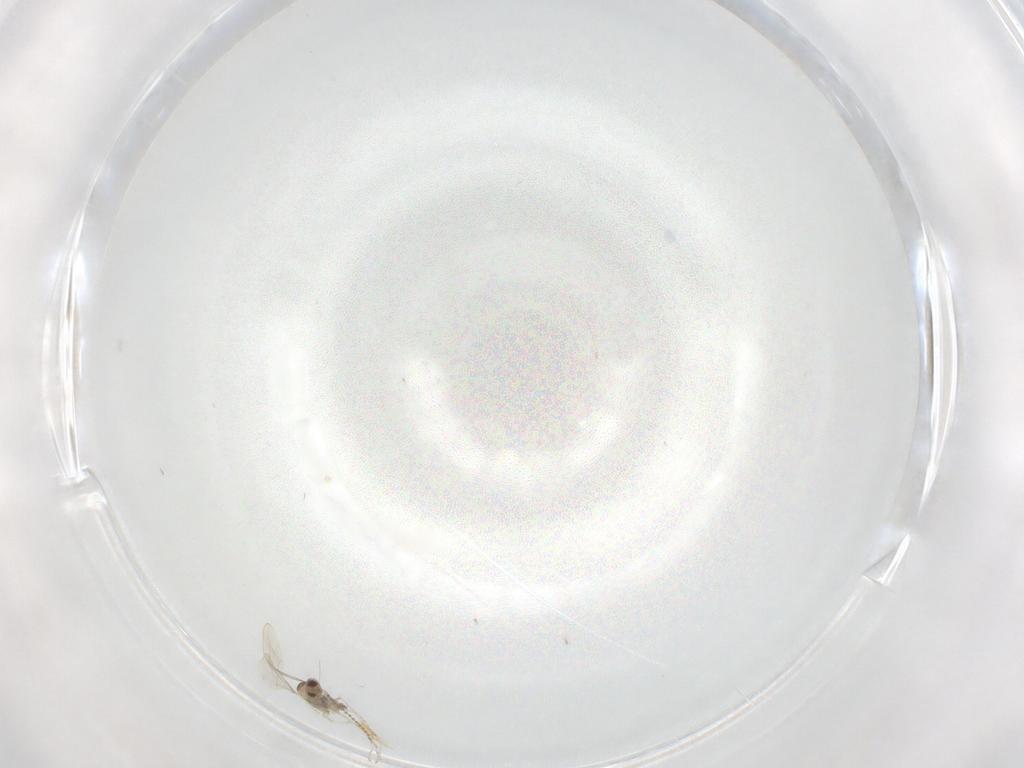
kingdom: Animalia
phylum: Arthropoda
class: Insecta
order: Diptera
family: Cecidomyiidae
